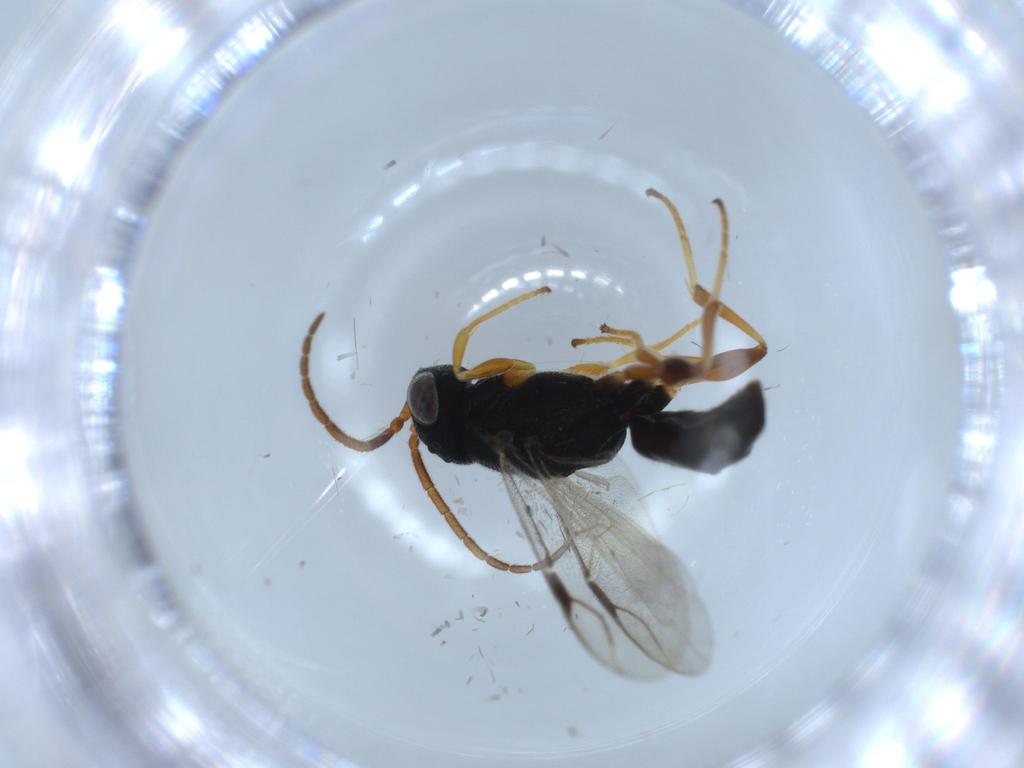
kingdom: Animalia
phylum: Arthropoda
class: Insecta
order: Hymenoptera
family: Dryinidae
